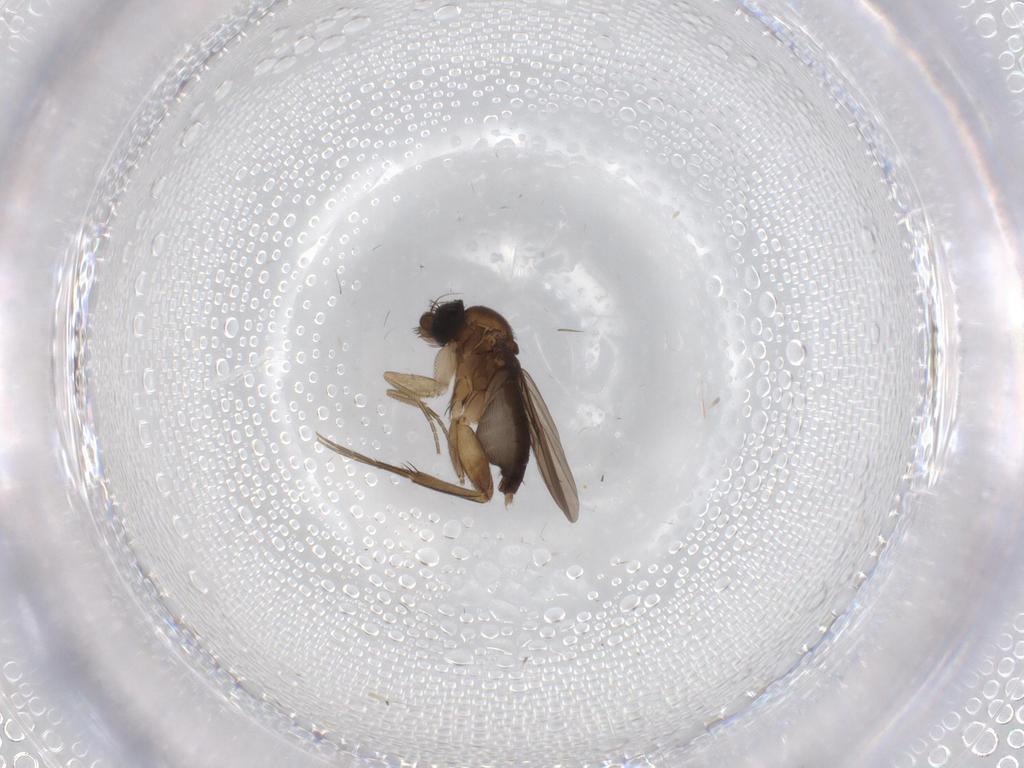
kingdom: Animalia
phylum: Arthropoda
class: Insecta
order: Diptera
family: Phoridae
